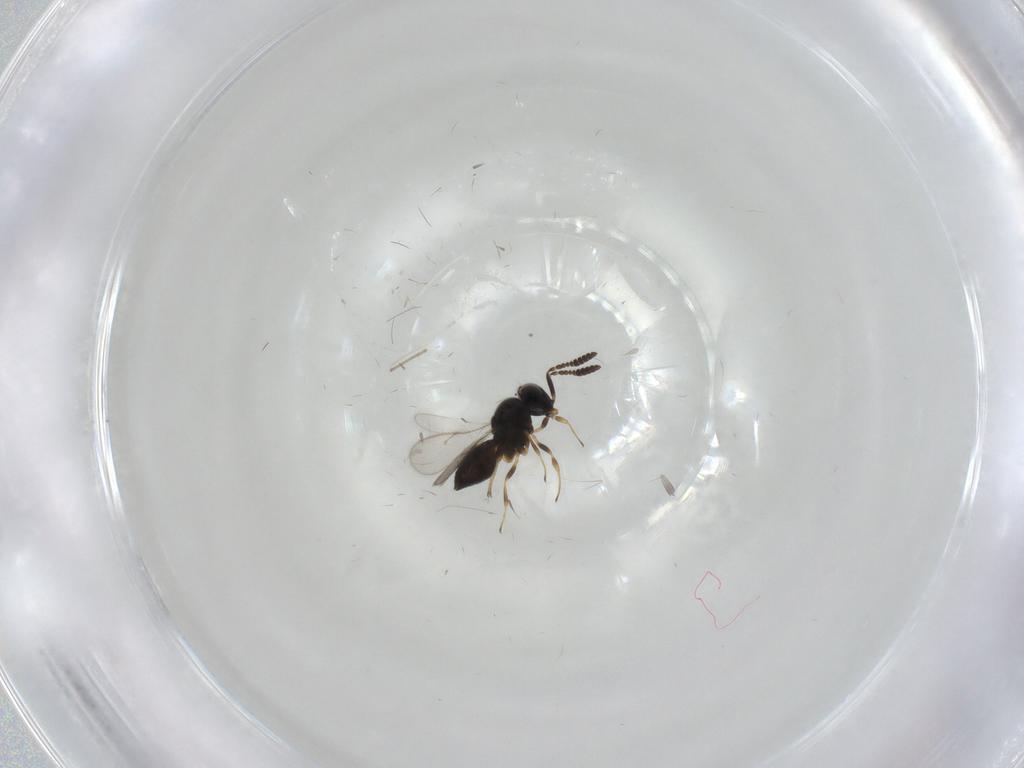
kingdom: Animalia
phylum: Arthropoda
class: Insecta
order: Hymenoptera
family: Scelionidae
